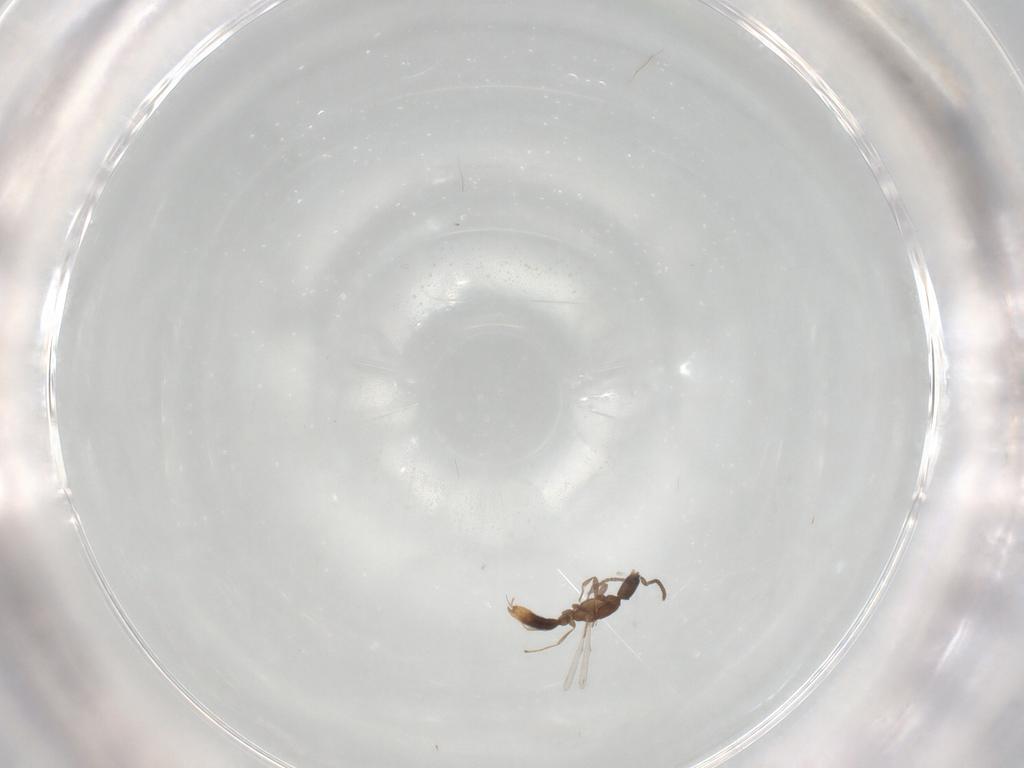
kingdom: Animalia
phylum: Arthropoda
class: Insecta
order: Hymenoptera
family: Formicidae
